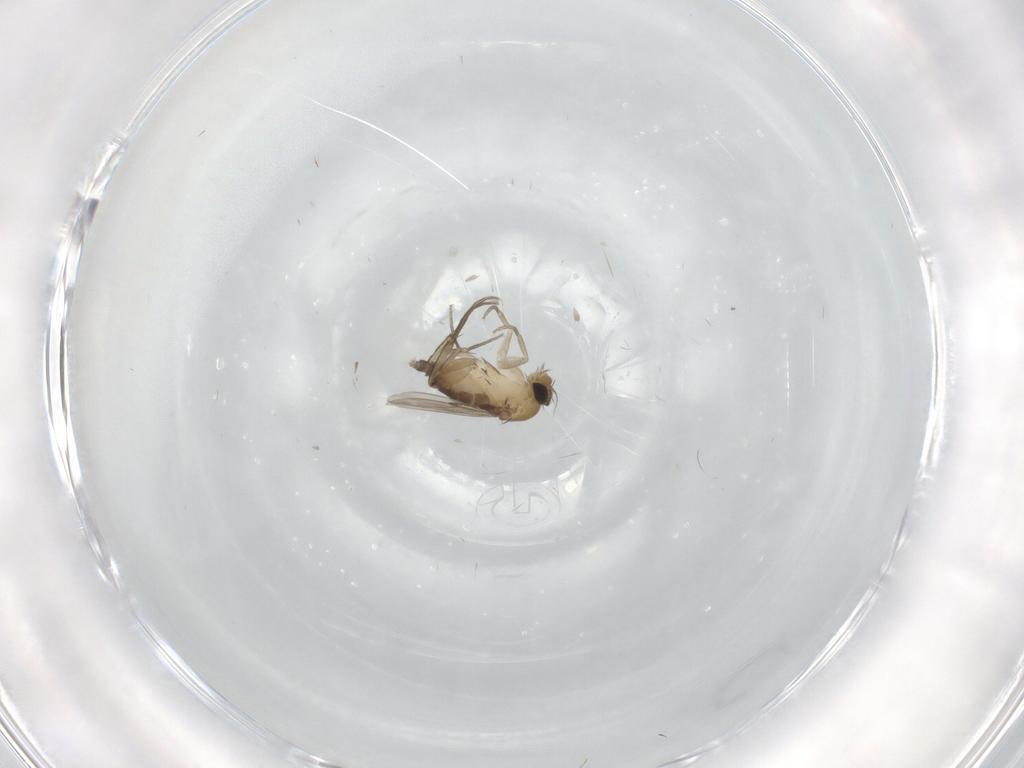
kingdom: Animalia
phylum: Arthropoda
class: Insecta
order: Diptera
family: Phoridae
